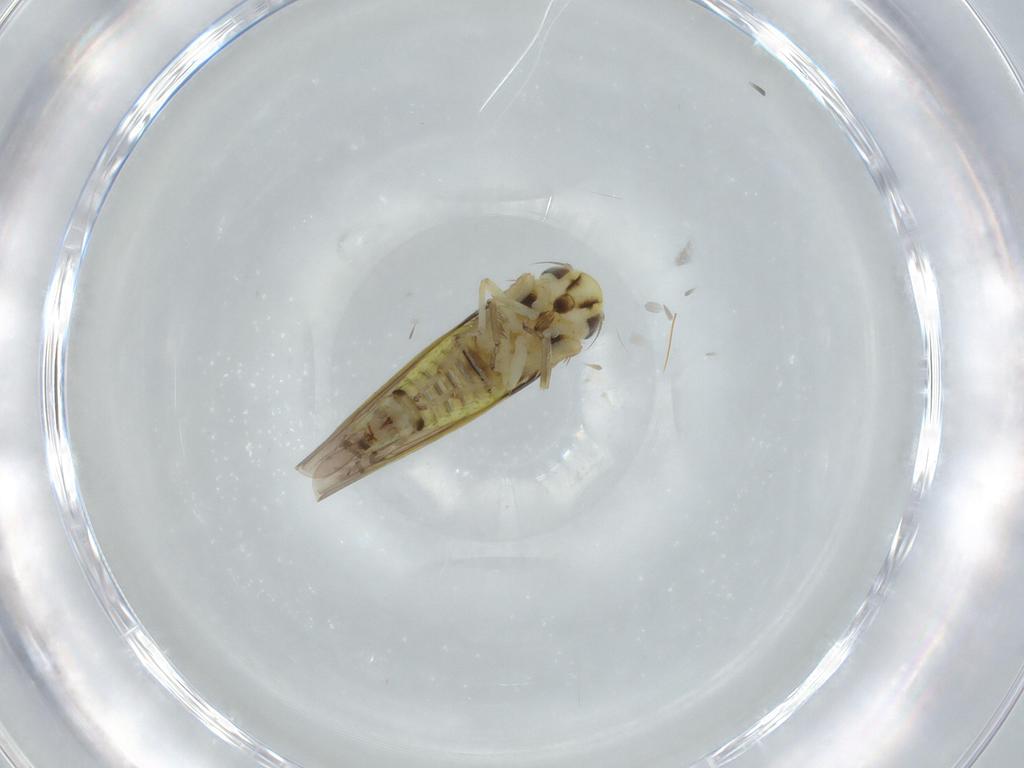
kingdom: Animalia
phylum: Arthropoda
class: Insecta
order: Hemiptera
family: Cicadellidae
